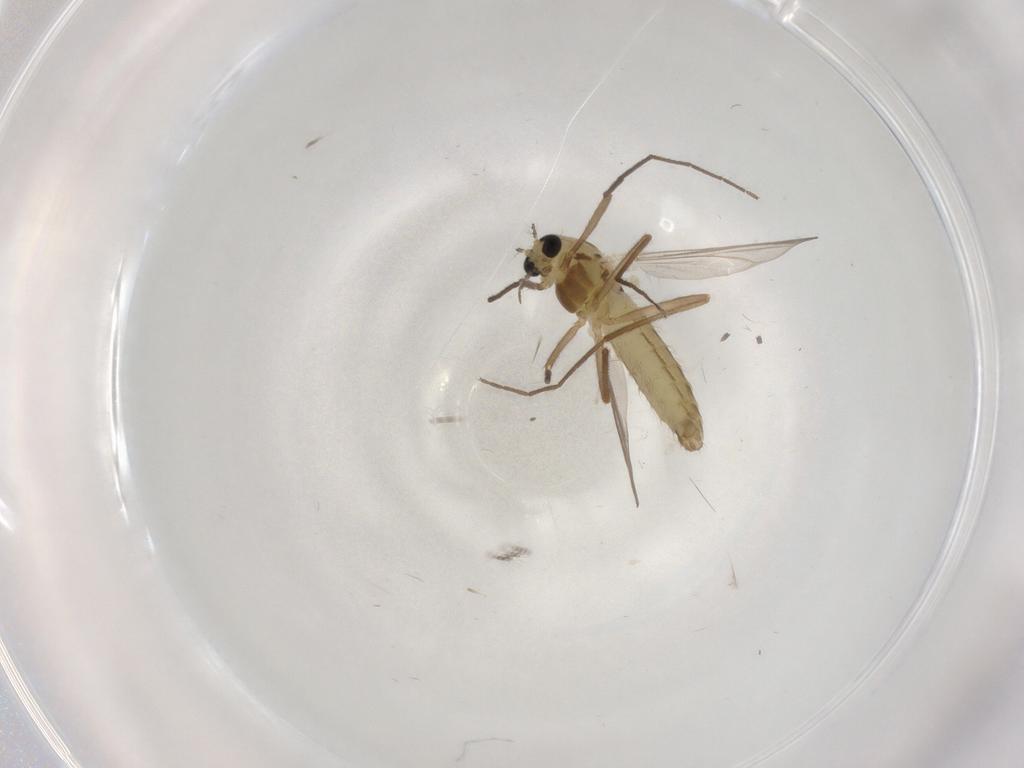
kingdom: Animalia
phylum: Arthropoda
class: Insecta
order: Diptera
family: Chironomidae
